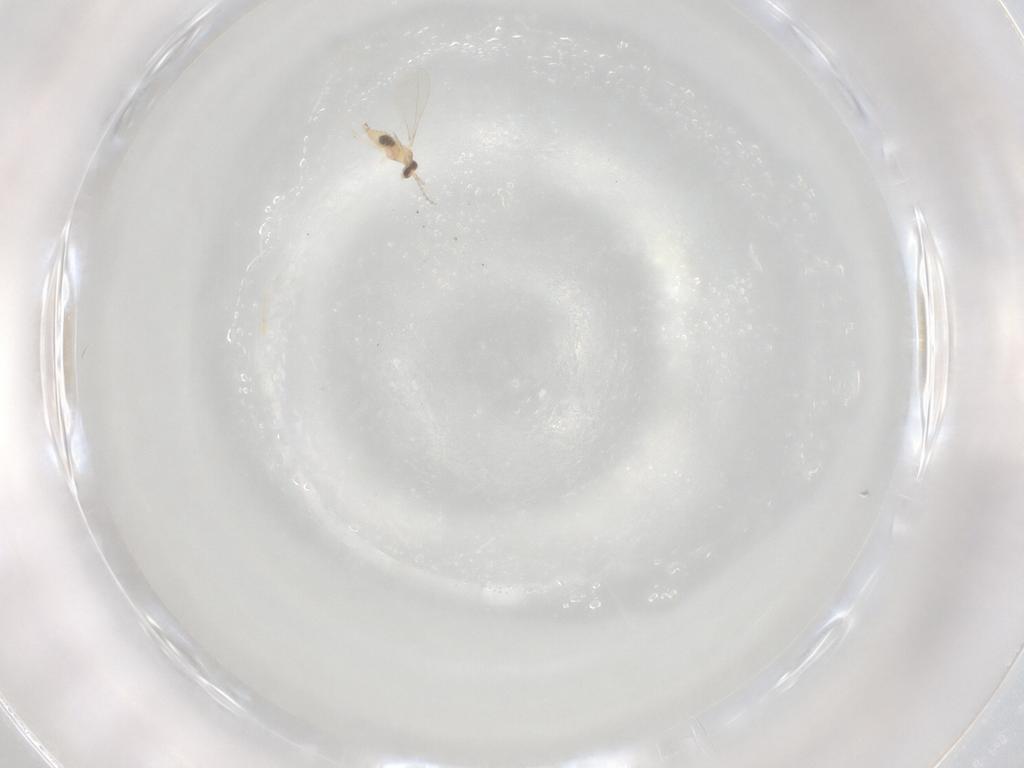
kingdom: Animalia
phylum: Arthropoda
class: Insecta
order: Diptera
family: Cecidomyiidae
